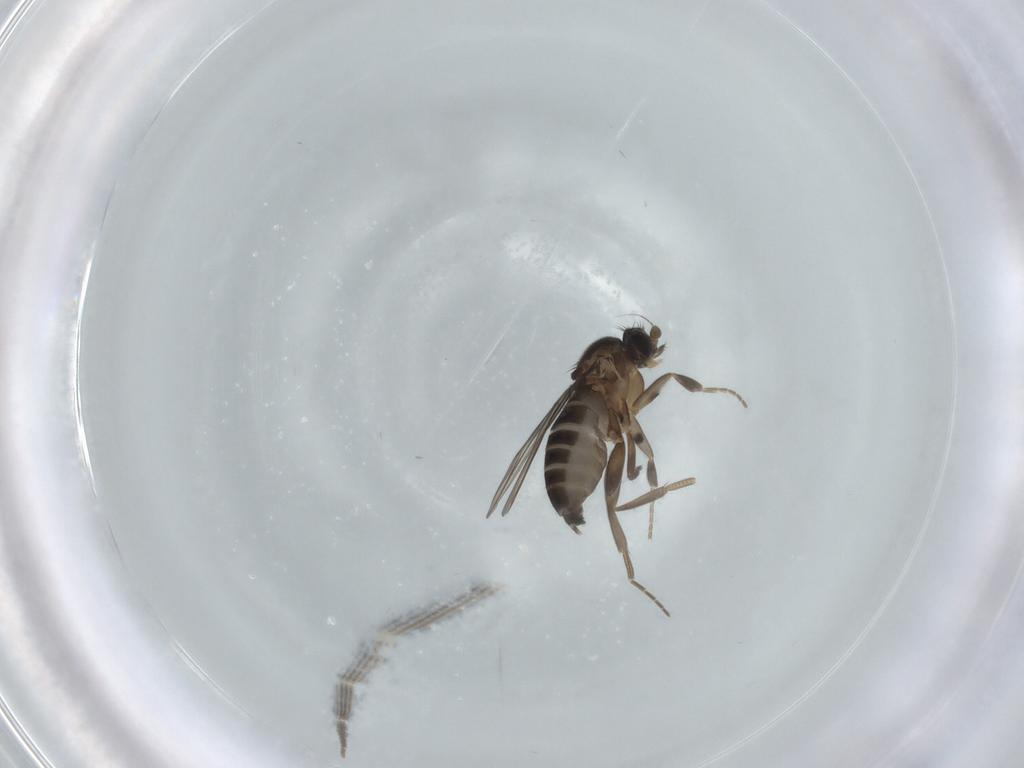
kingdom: Animalia
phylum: Arthropoda
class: Insecta
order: Diptera
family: Phoridae
